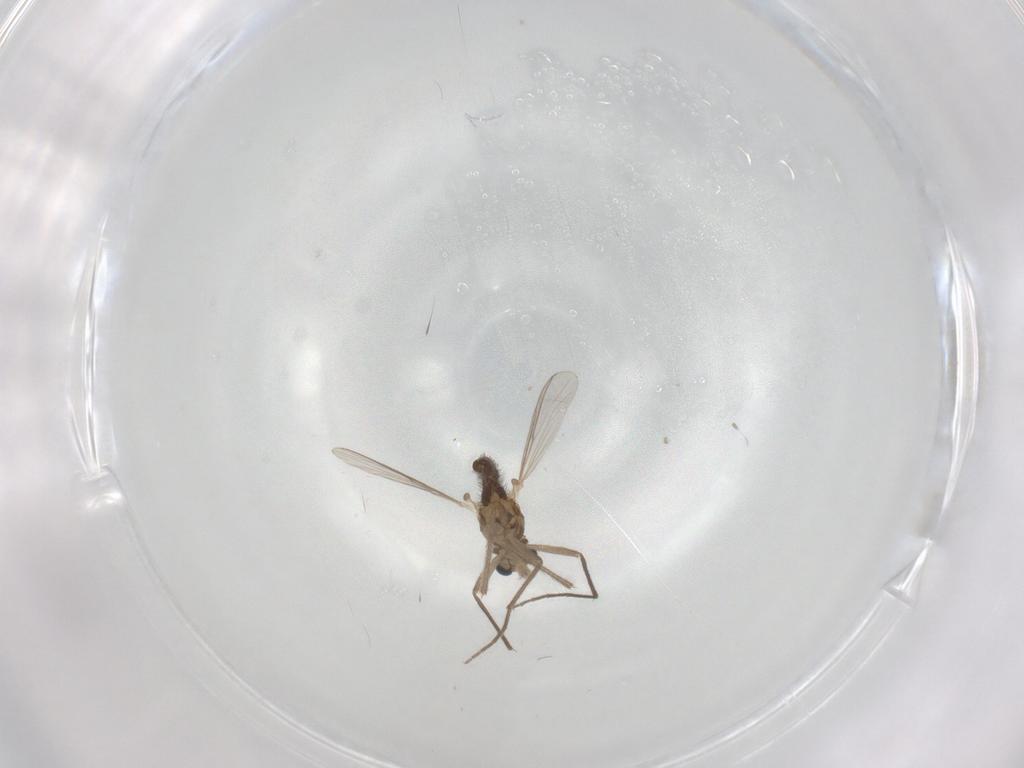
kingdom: Animalia
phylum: Arthropoda
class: Insecta
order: Diptera
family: Chironomidae
